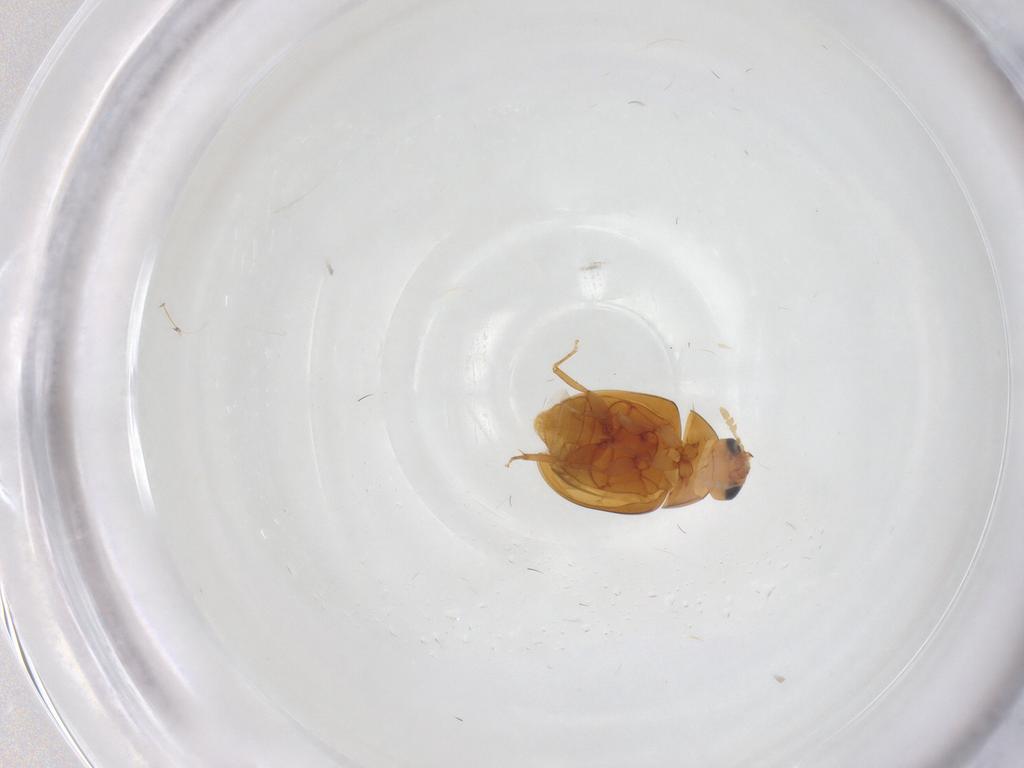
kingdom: Animalia
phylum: Arthropoda
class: Insecta
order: Coleoptera
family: Phalacridae
